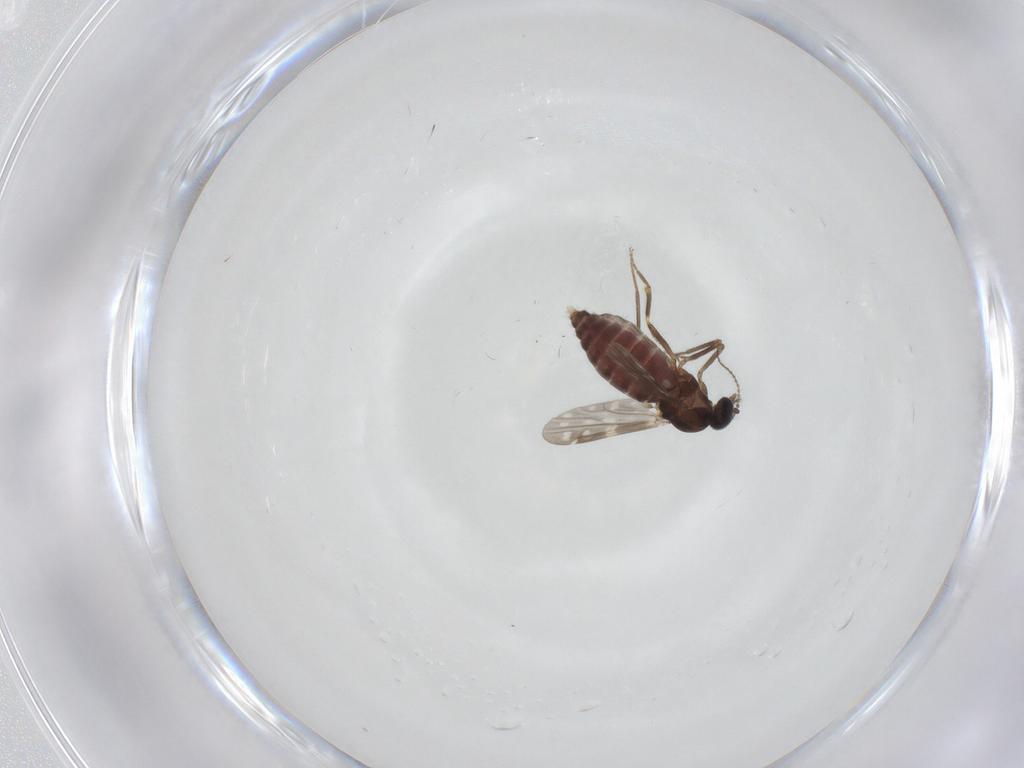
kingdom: Animalia
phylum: Arthropoda
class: Insecta
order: Diptera
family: Ceratopogonidae
